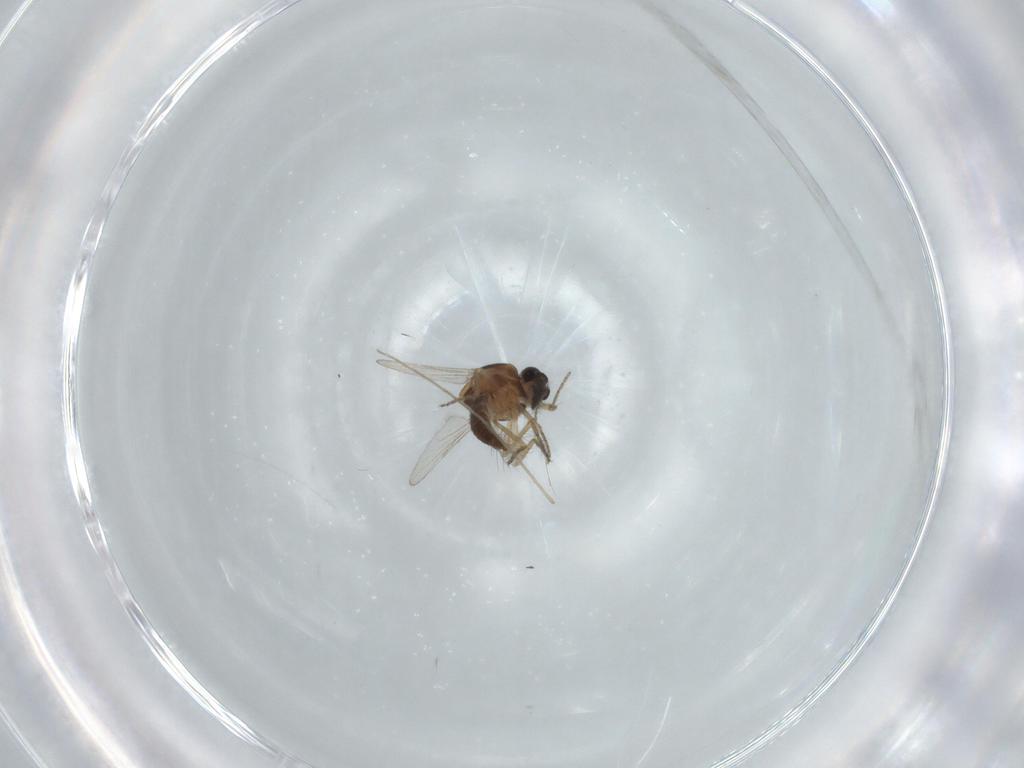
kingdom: Animalia
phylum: Arthropoda
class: Insecta
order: Diptera
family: Ceratopogonidae
